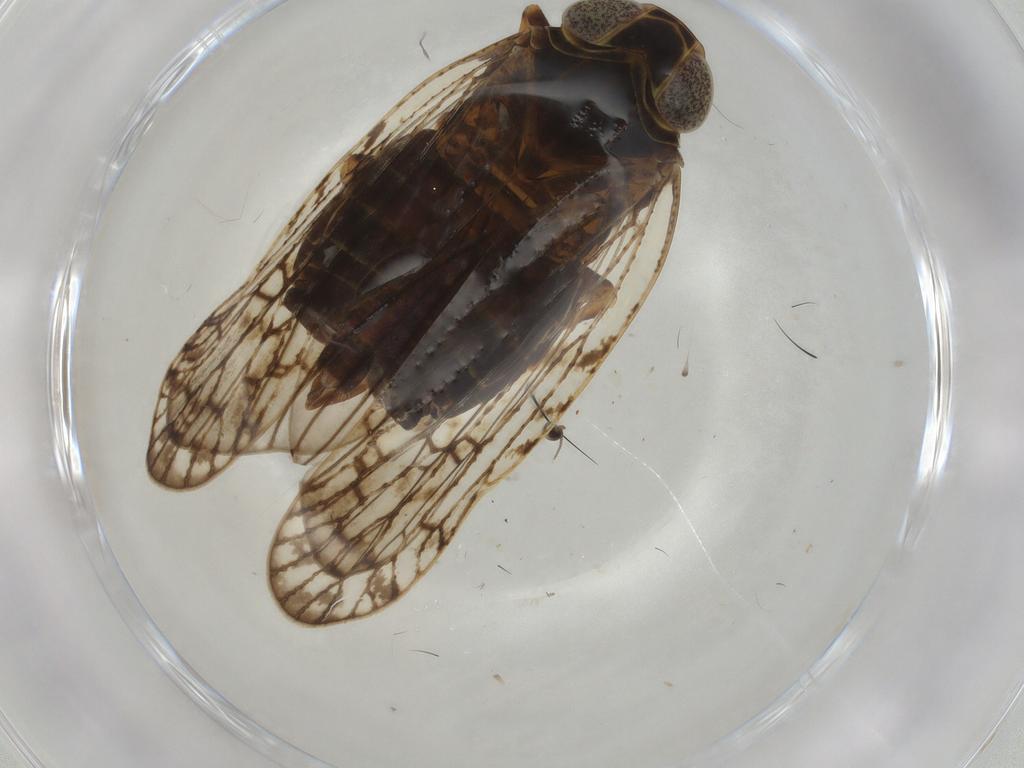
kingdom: Animalia
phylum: Arthropoda
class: Insecta
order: Hemiptera
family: Cixiidae
